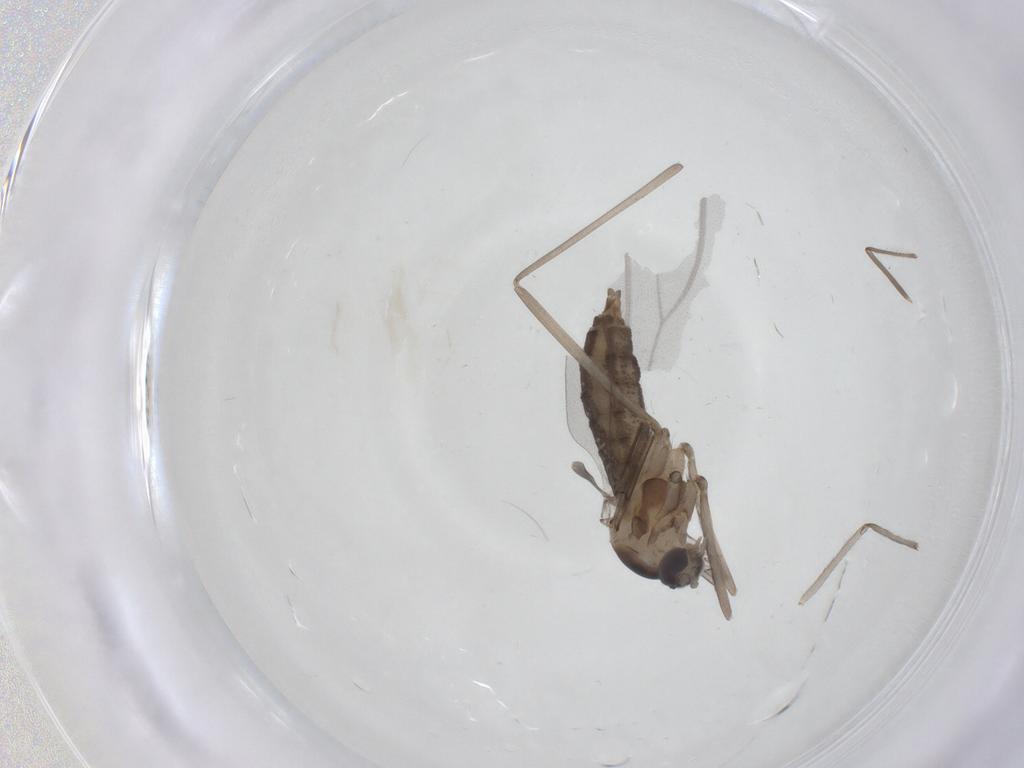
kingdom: Animalia
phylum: Arthropoda
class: Insecta
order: Diptera
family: Cecidomyiidae
